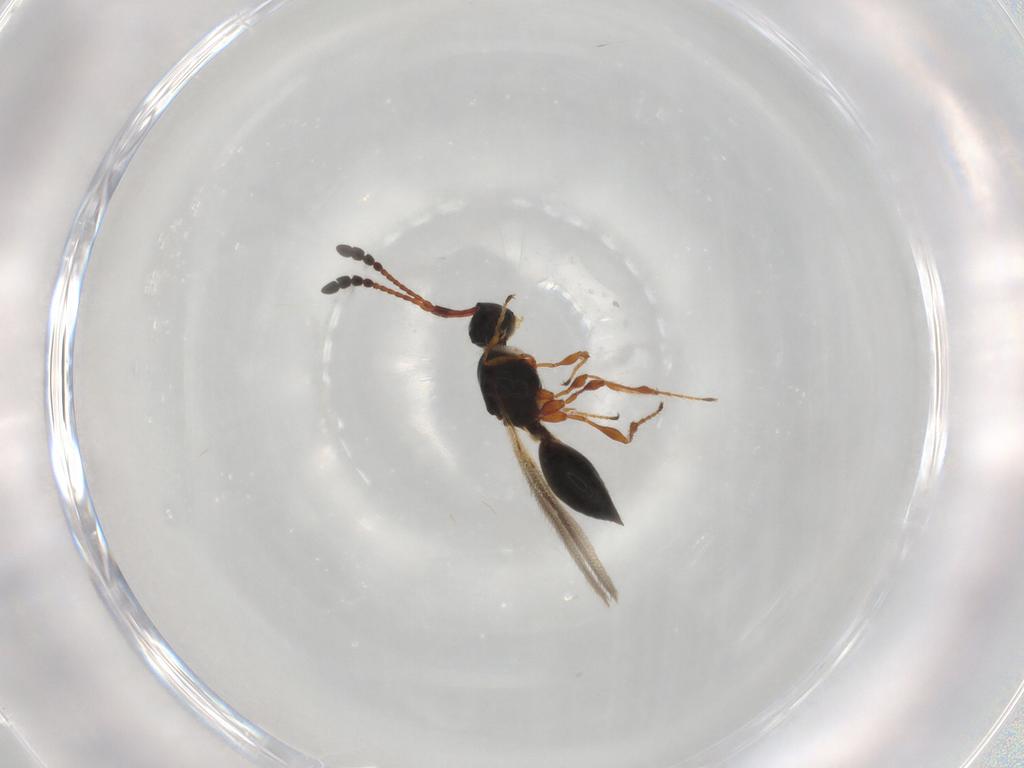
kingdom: Animalia
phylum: Arthropoda
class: Insecta
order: Hymenoptera
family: Diapriidae
